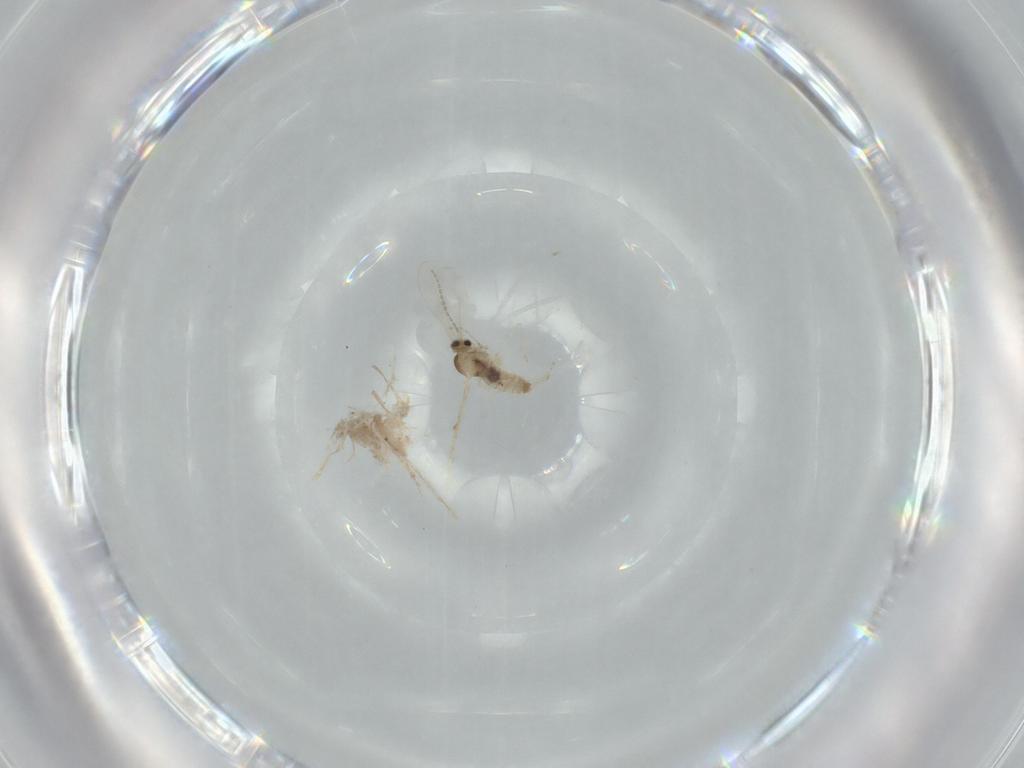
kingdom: Animalia
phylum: Arthropoda
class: Insecta
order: Diptera
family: Cecidomyiidae
